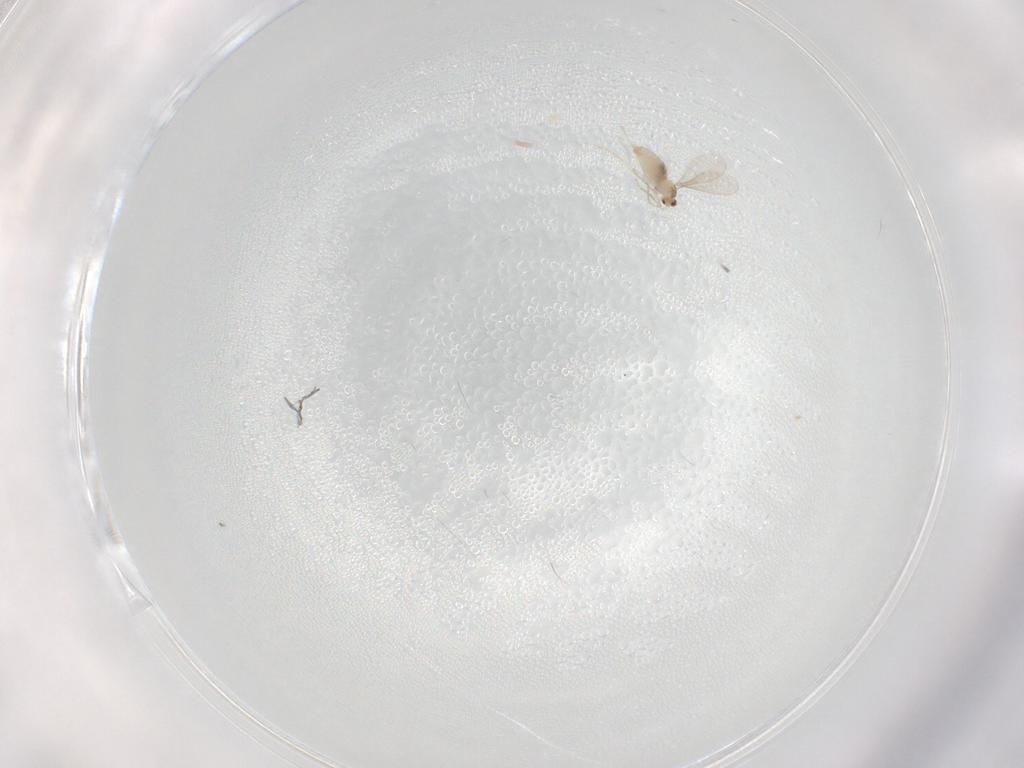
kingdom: Animalia
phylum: Arthropoda
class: Insecta
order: Diptera
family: Cecidomyiidae
